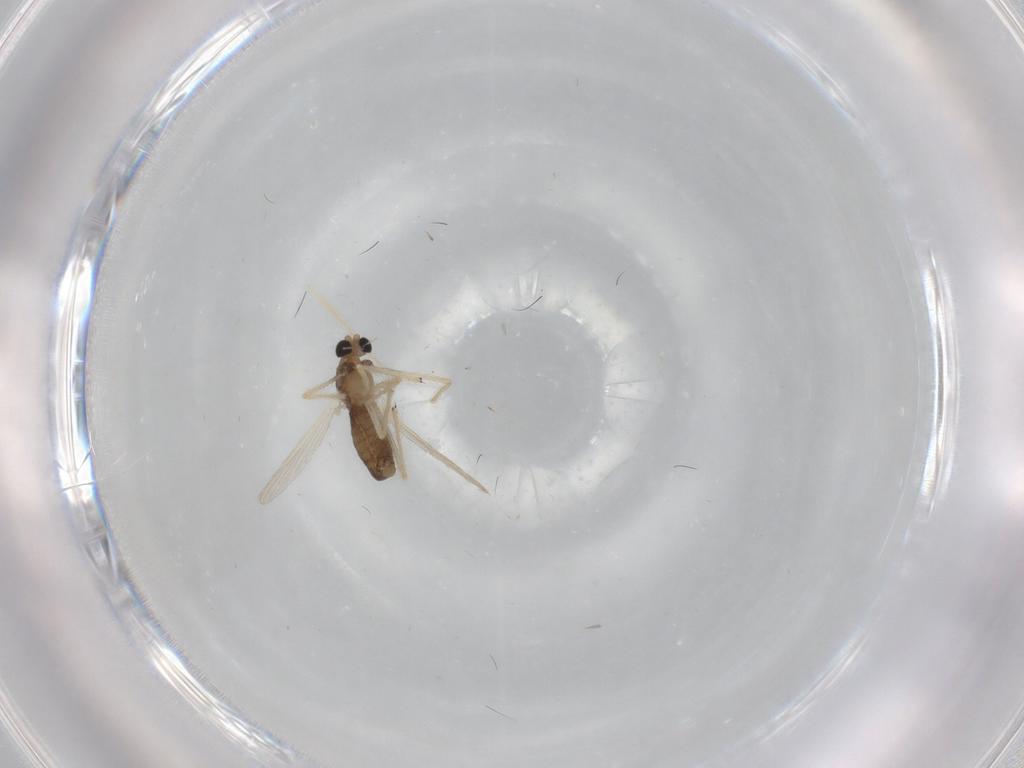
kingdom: Animalia
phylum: Arthropoda
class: Insecta
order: Diptera
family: Chironomidae
